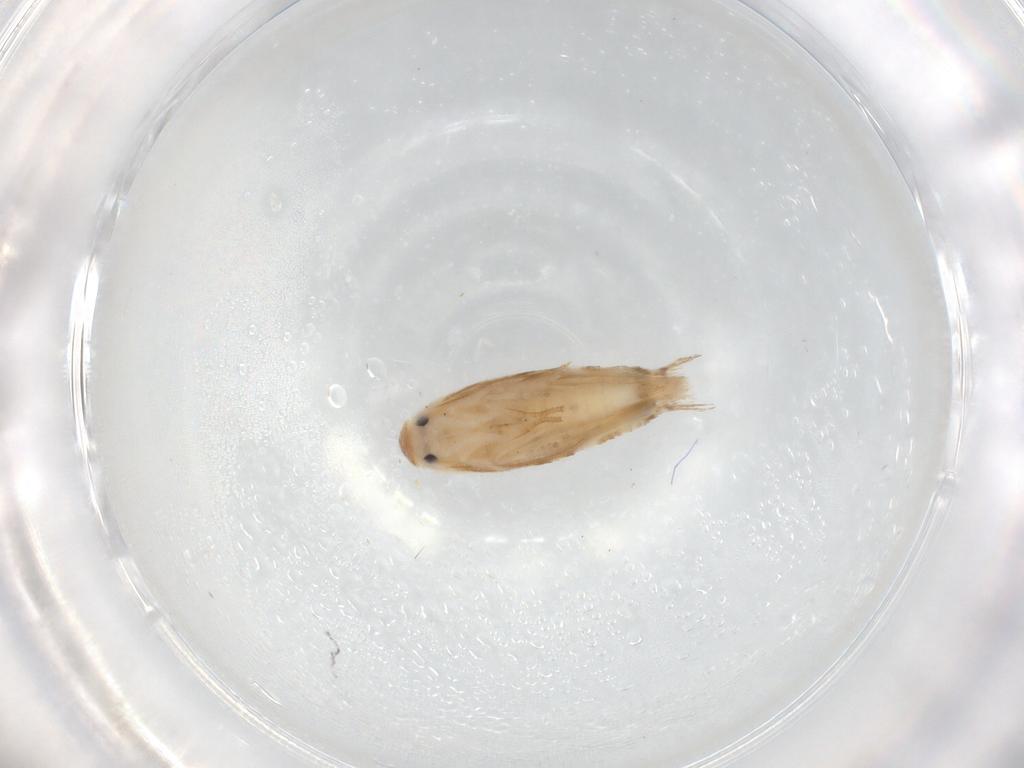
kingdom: Animalia
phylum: Arthropoda
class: Insecta
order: Lepidoptera
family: Lyonetiidae
